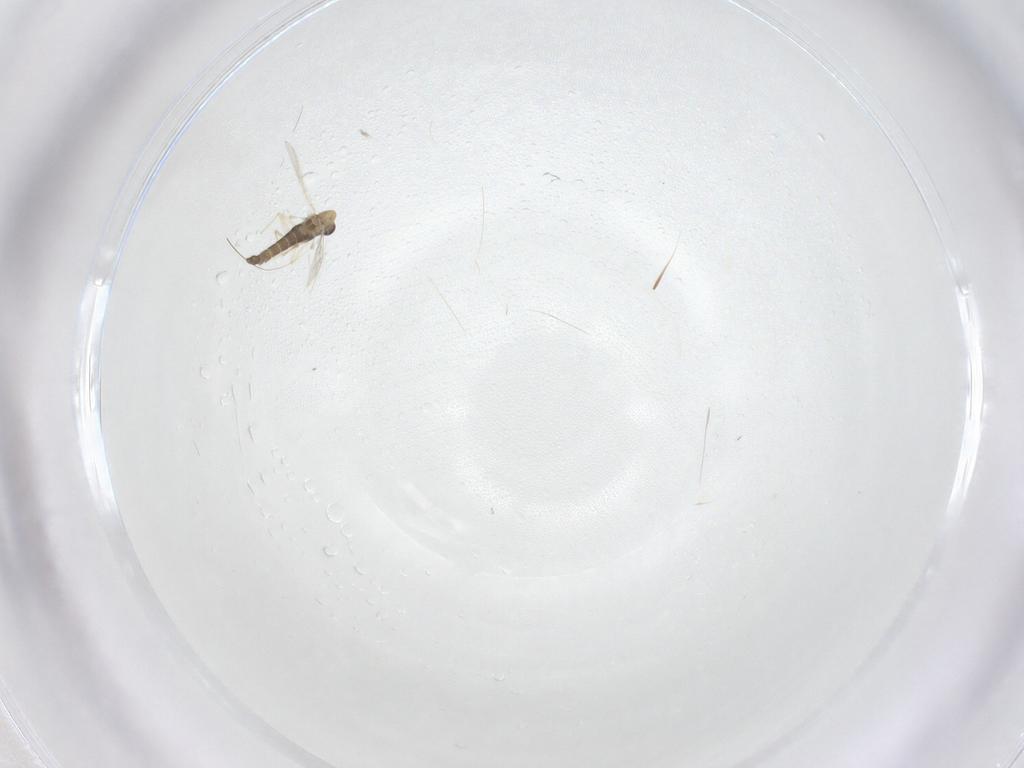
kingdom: Animalia
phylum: Arthropoda
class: Insecta
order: Diptera
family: Chironomidae
